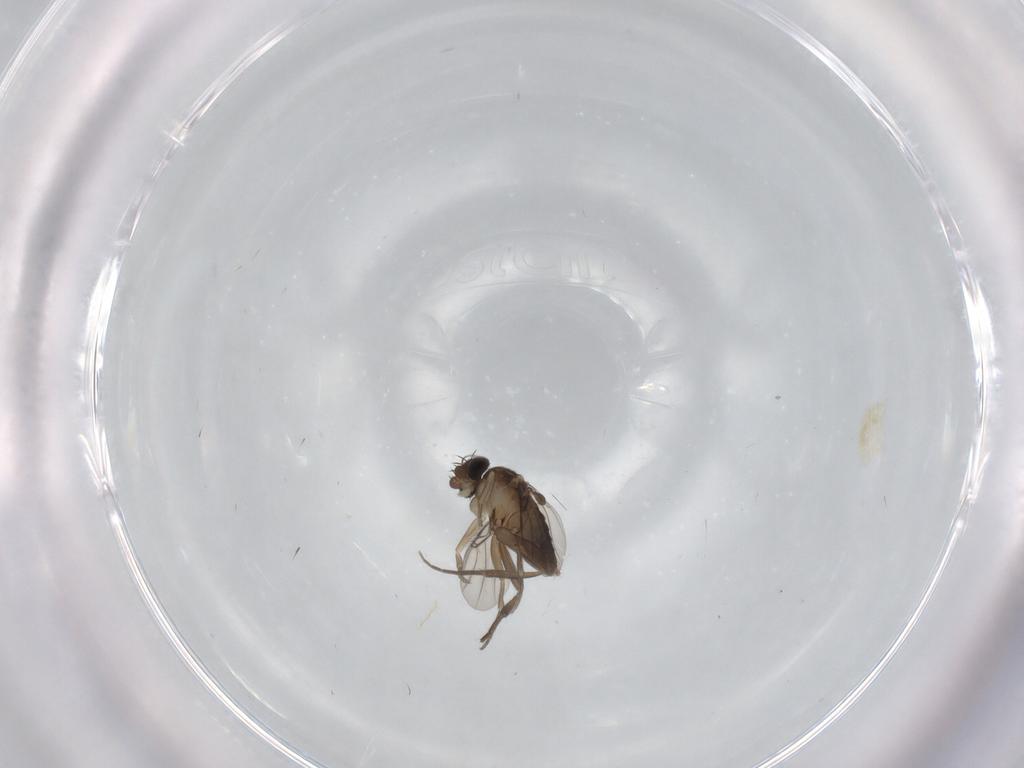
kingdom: Animalia
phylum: Arthropoda
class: Insecta
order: Diptera
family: Phoridae
